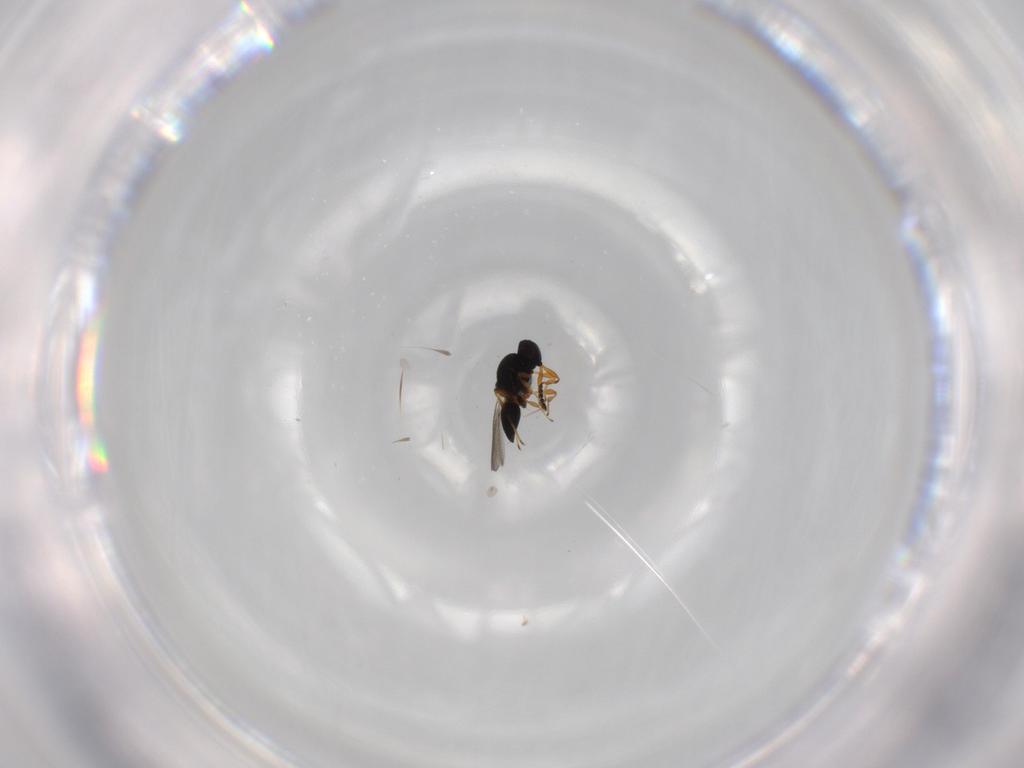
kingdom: Animalia
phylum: Arthropoda
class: Insecta
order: Hymenoptera
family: Platygastridae
